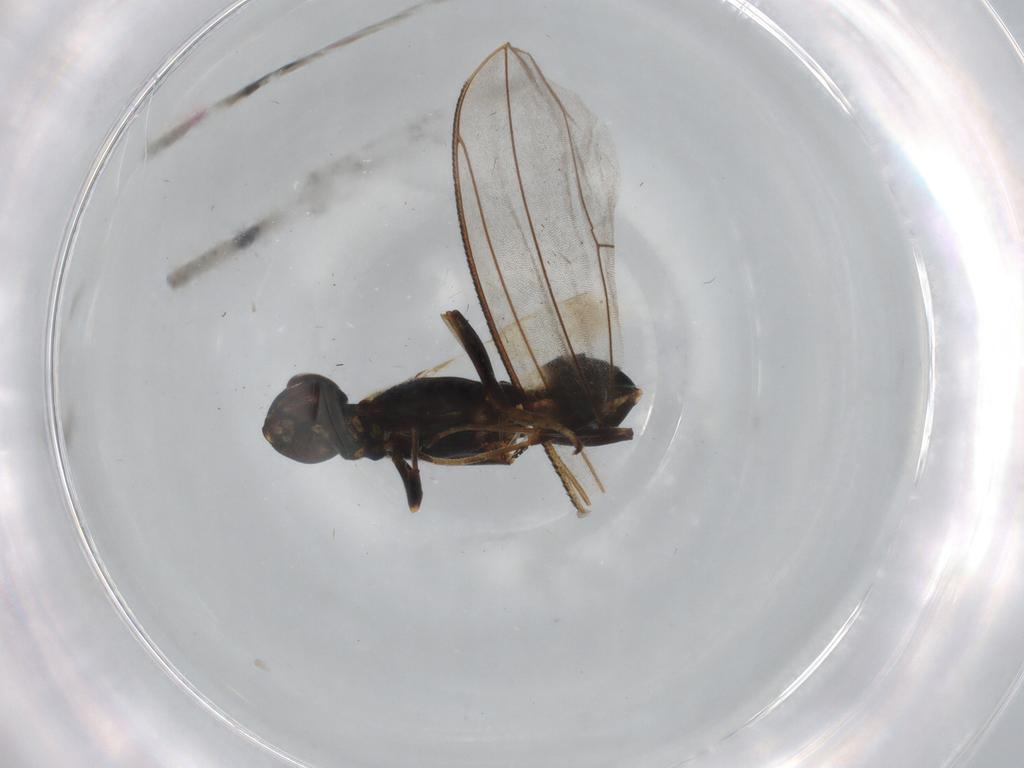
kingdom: Animalia
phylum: Arthropoda
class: Insecta
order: Hymenoptera
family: Eupelmidae
